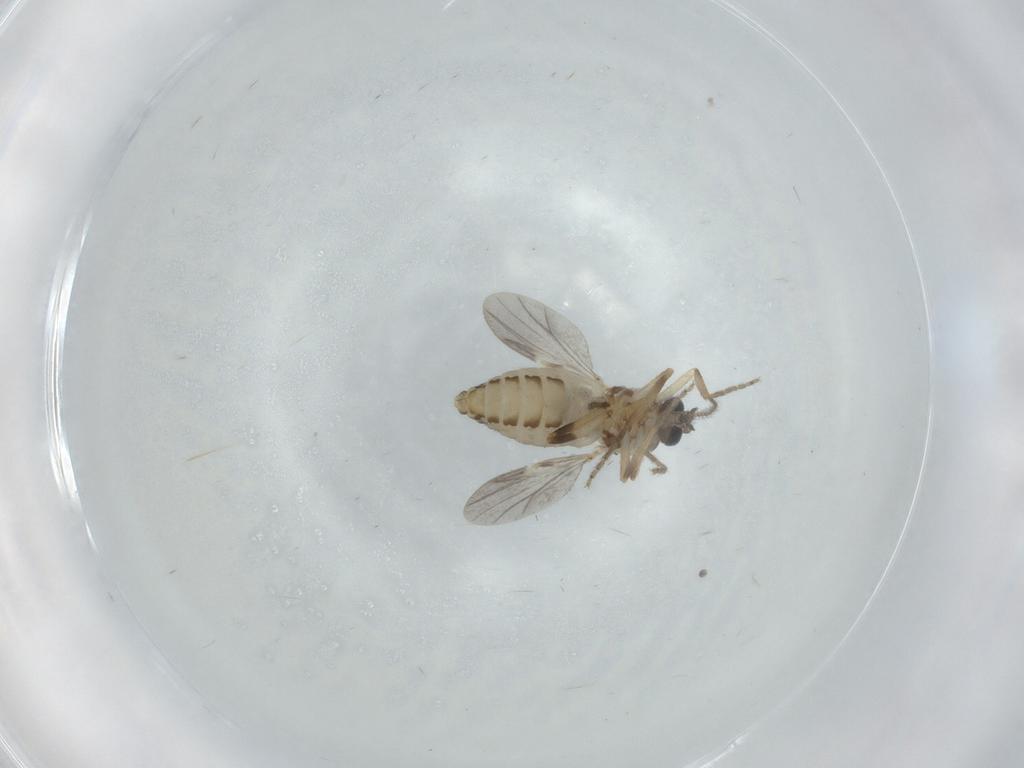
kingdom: Animalia
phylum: Arthropoda
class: Insecta
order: Diptera
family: Ceratopogonidae
